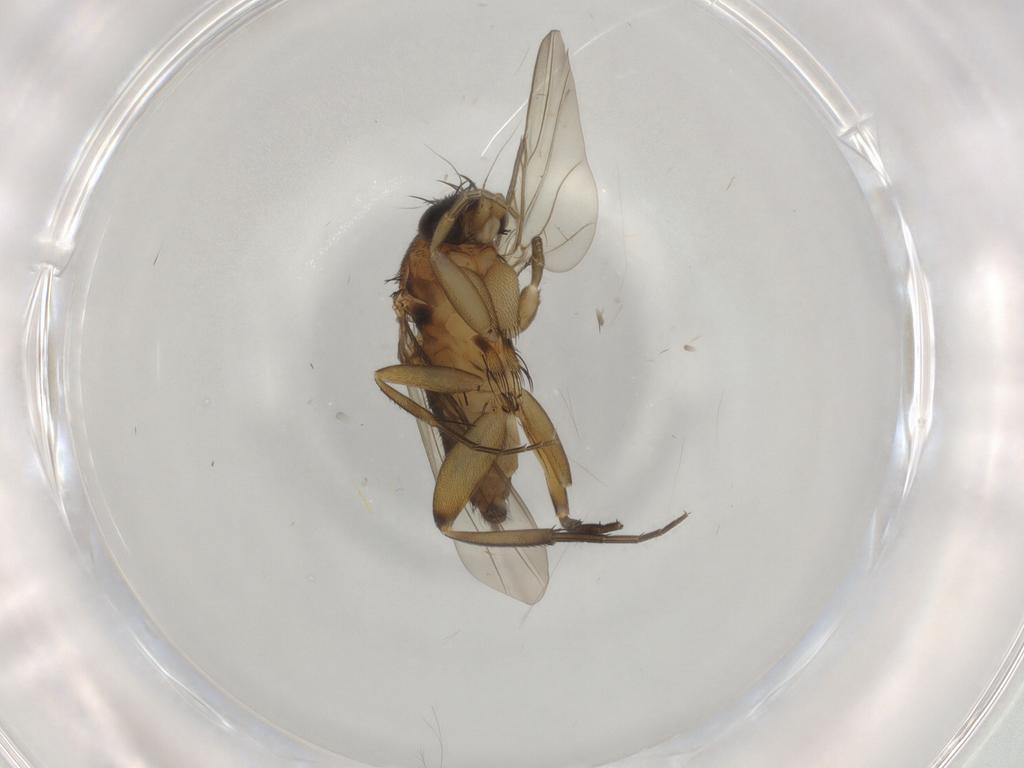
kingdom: Animalia
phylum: Arthropoda
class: Insecta
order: Diptera
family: Phoridae
